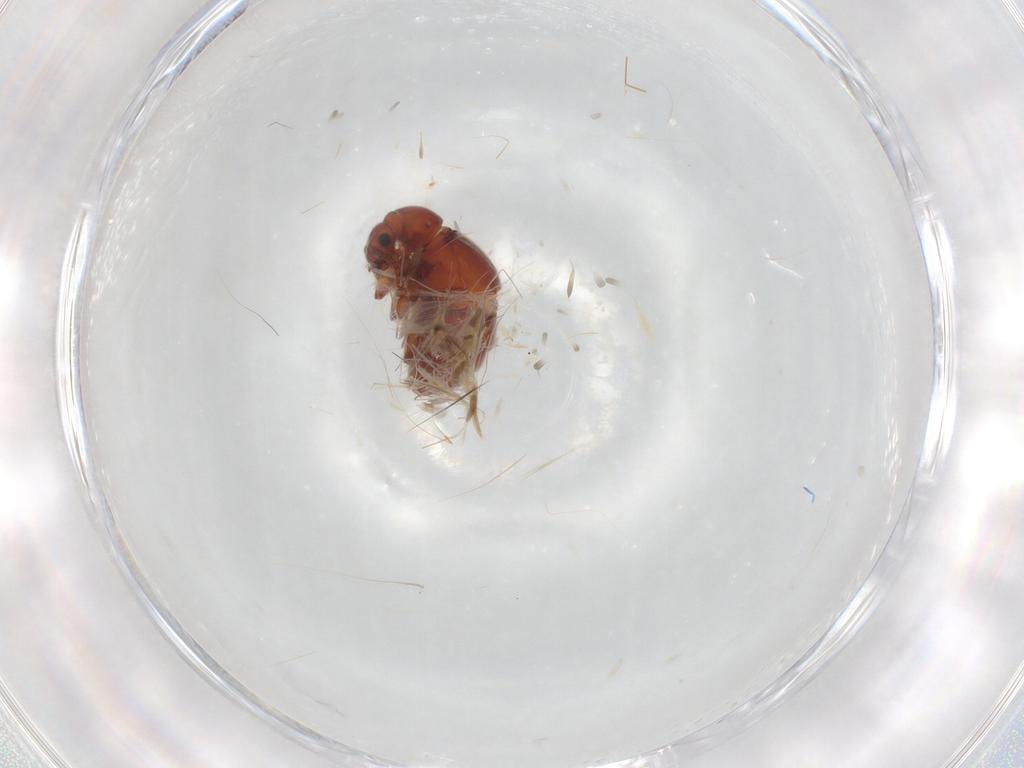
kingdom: Animalia
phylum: Arthropoda
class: Insecta
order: Coleoptera
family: Staphylinidae
